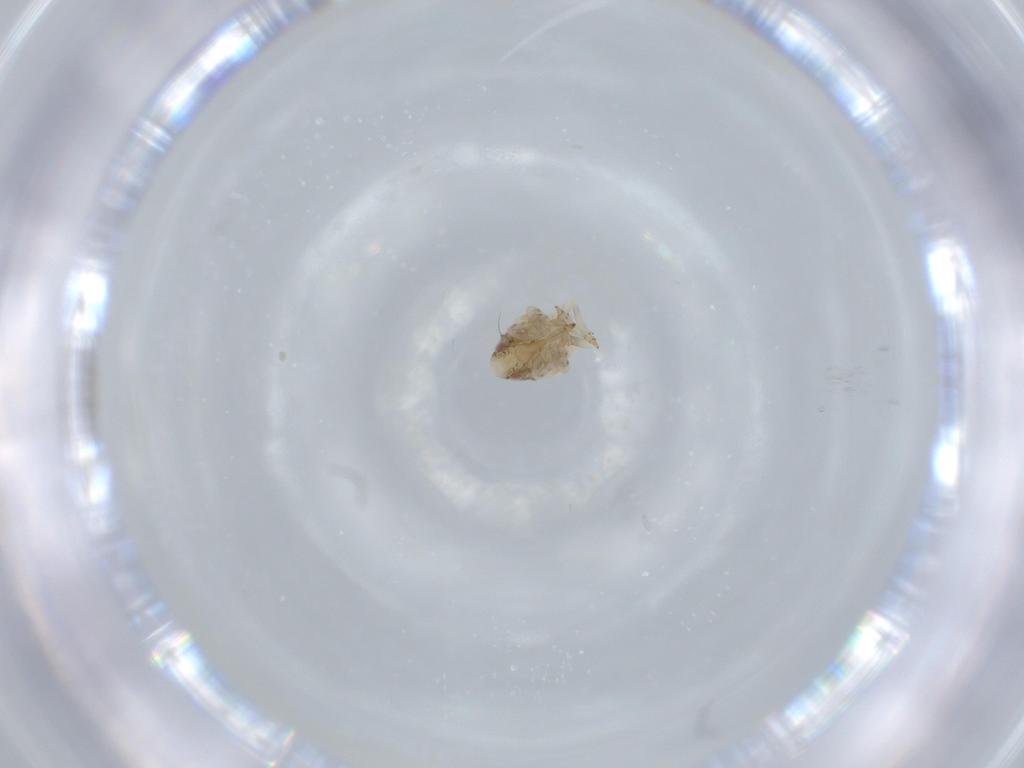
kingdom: Animalia
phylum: Arthropoda
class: Insecta
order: Hemiptera
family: Acanaloniidae
